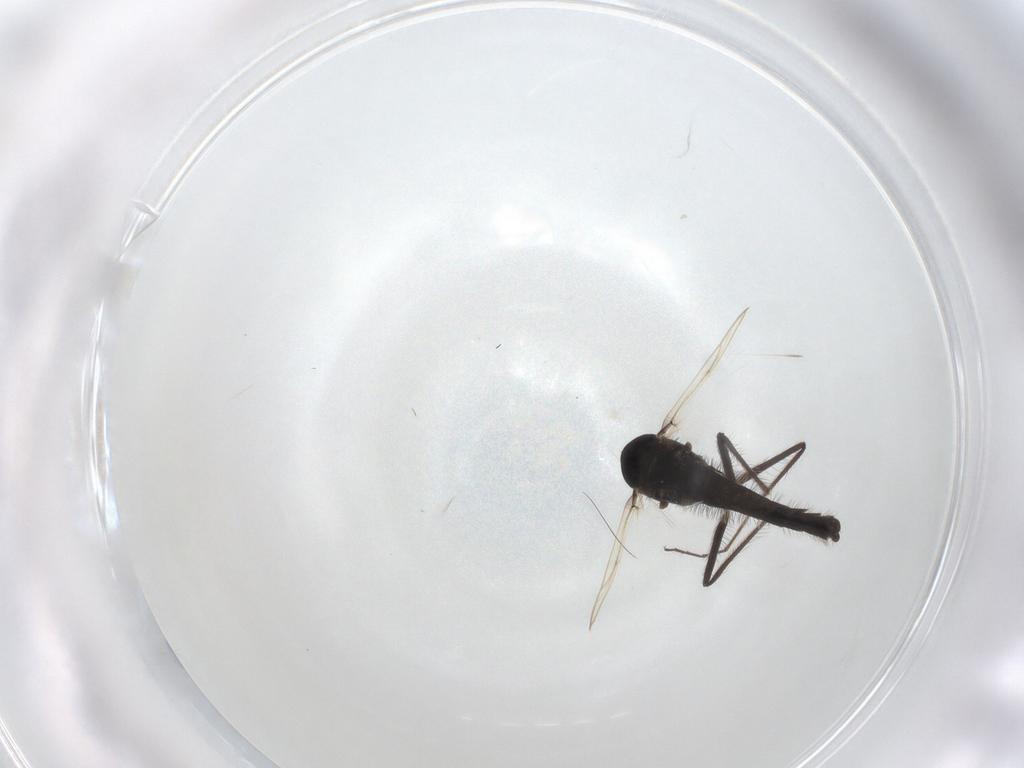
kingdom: Animalia
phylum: Arthropoda
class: Insecta
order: Diptera
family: Chironomidae
